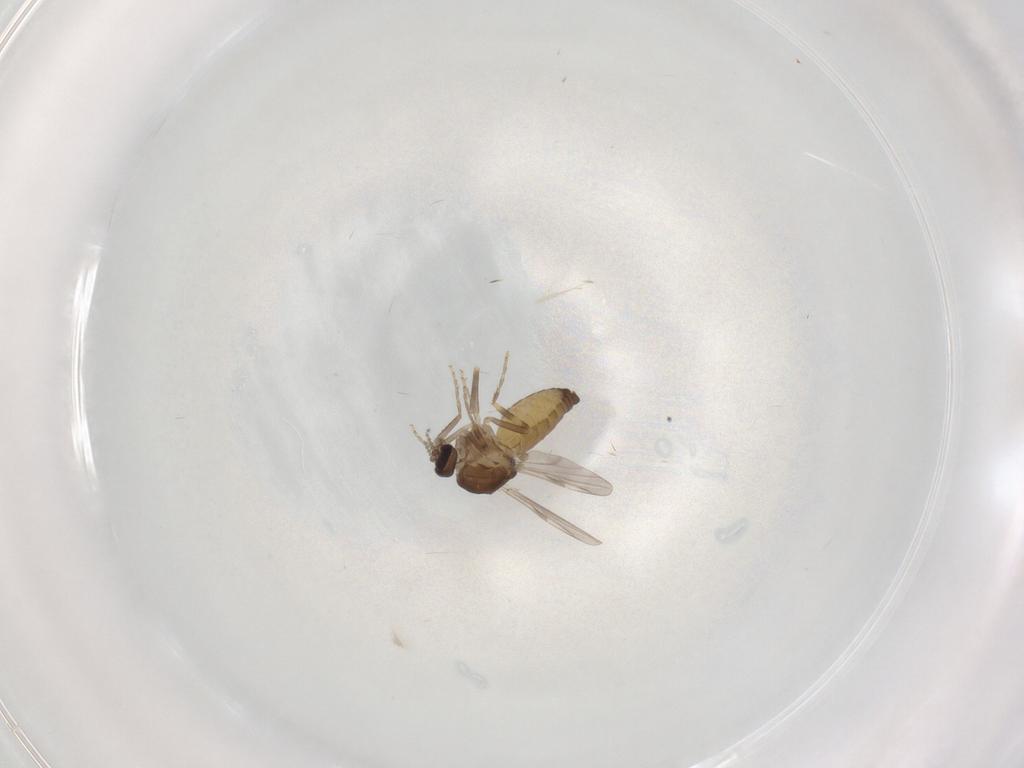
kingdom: Animalia
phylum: Arthropoda
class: Insecta
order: Diptera
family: Ceratopogonidae
